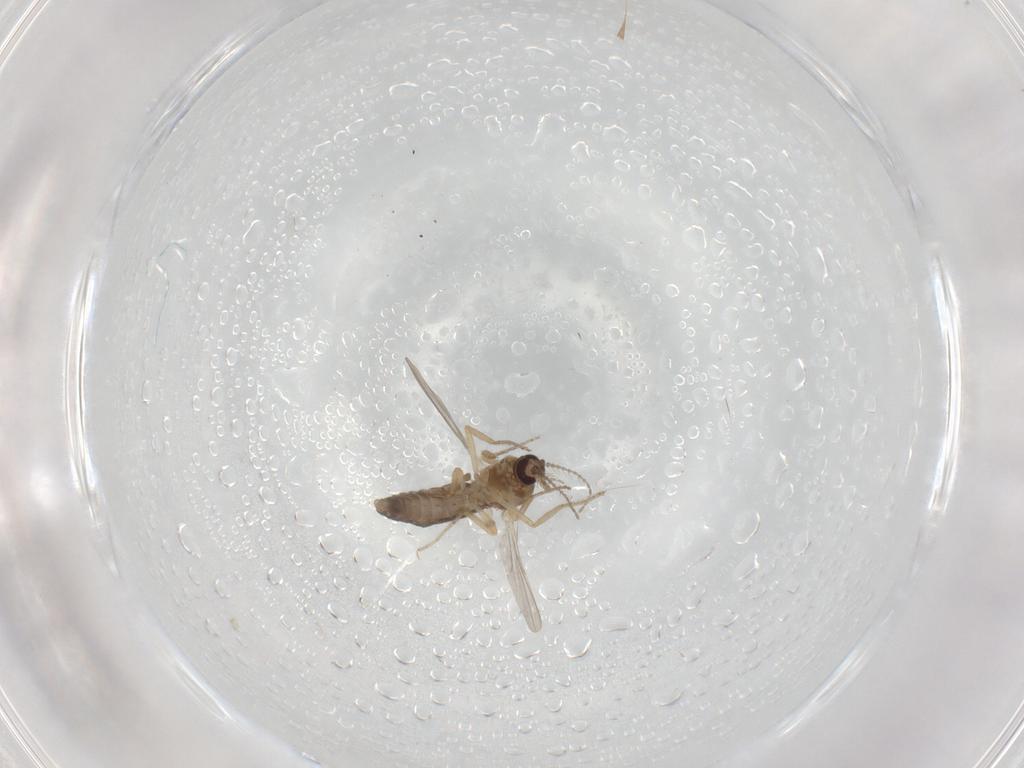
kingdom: Animalia
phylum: Arthropoda
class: Insecta
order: Diptera
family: Ceratopogonidae
